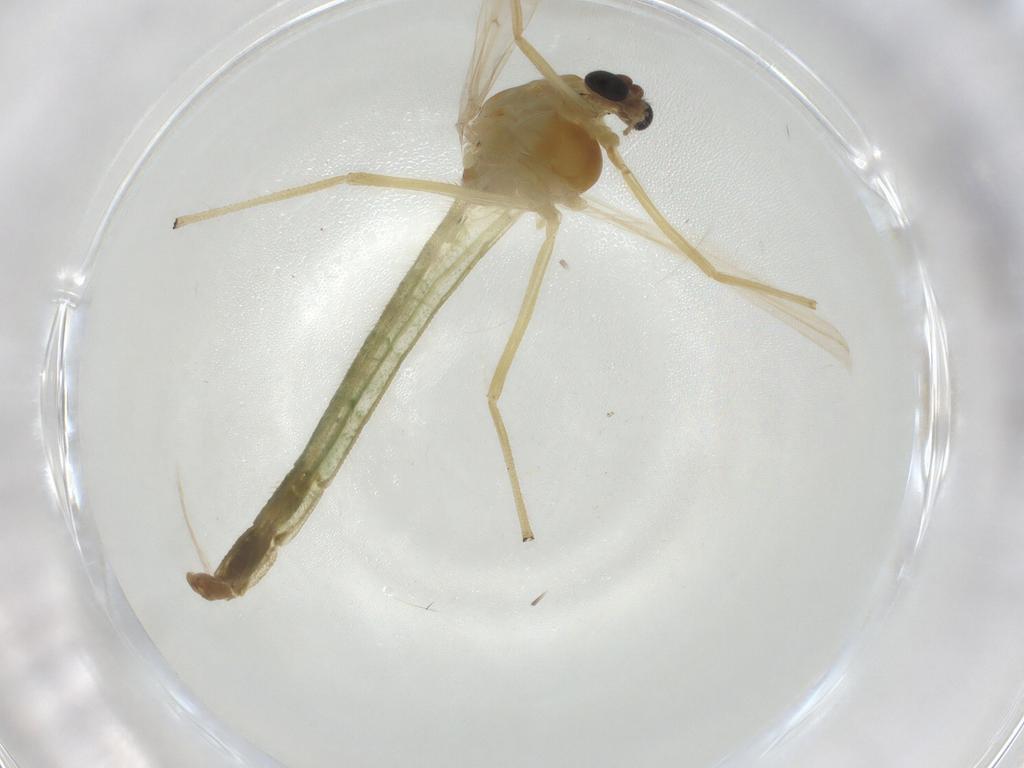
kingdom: Animalia
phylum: Arthropoda
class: Insecta
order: Diptera
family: Chironomidae
